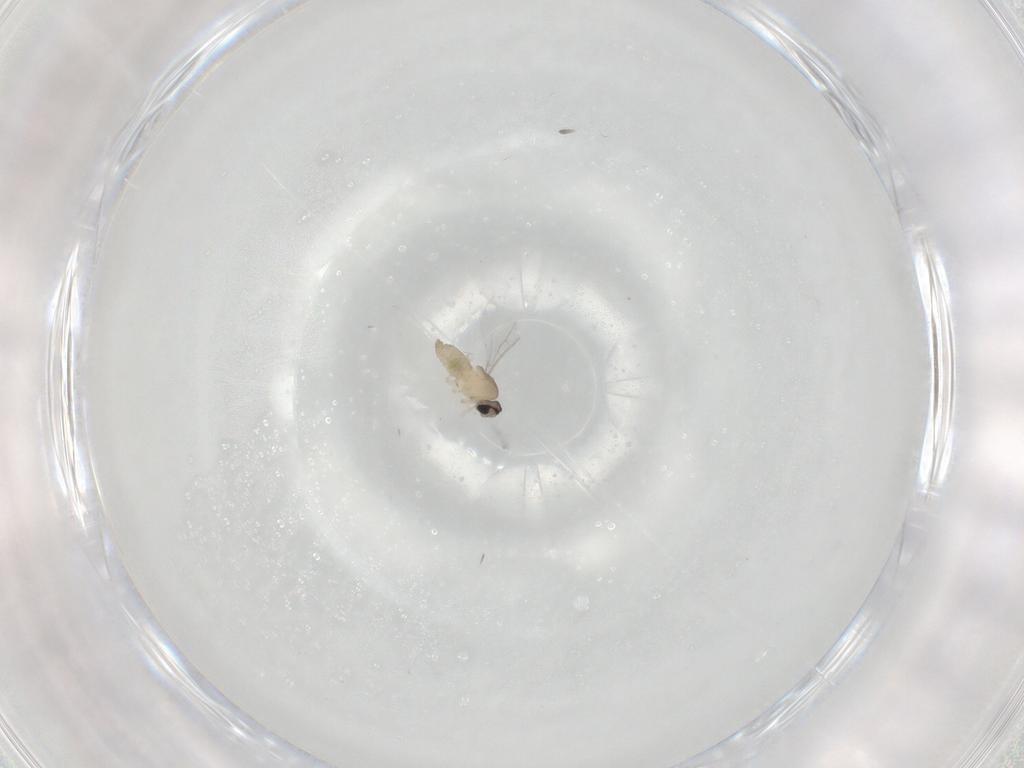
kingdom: Animalia
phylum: Arthropoda
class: Insecta
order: Diptera
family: Cecidomyiidae
